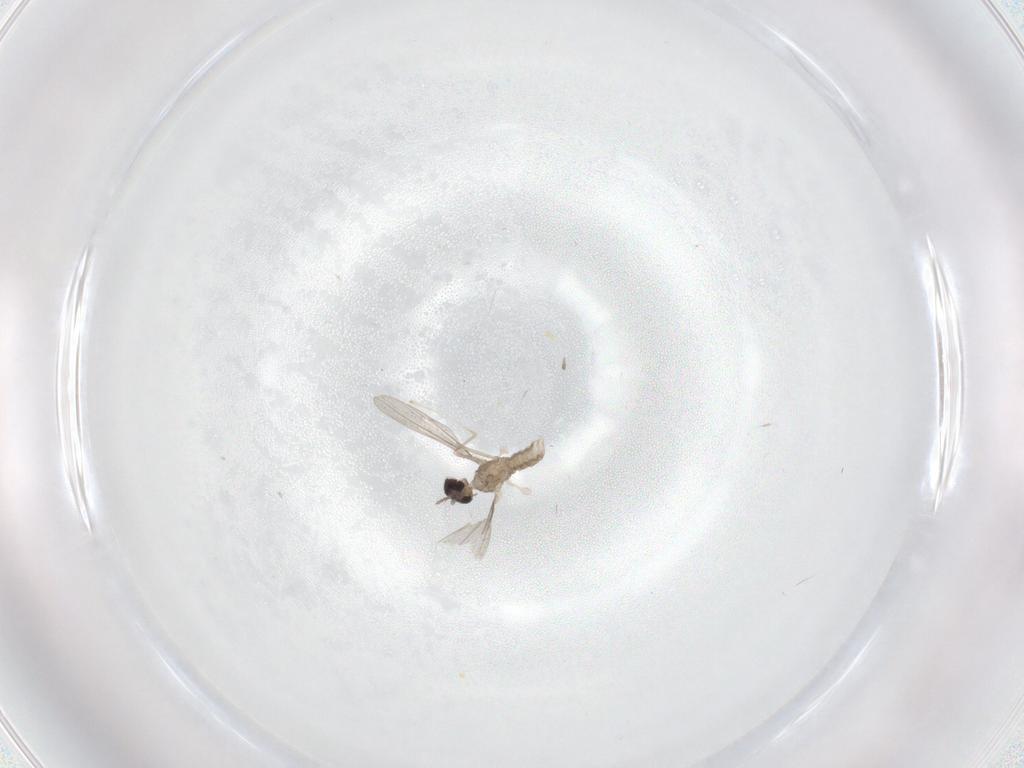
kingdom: Animalia
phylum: Arthropoda
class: Insecta
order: Diptera
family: Cecidomyiidae
